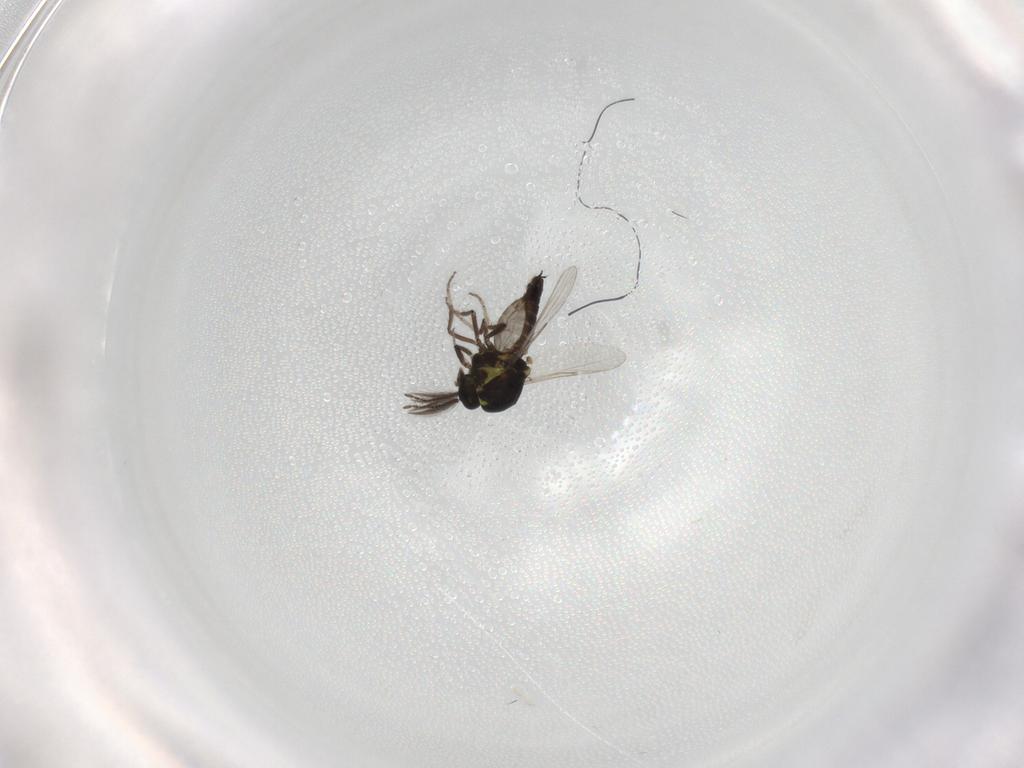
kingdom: Animalia
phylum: Arthropoda
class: Insecta
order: Diptera
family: Ceratopogonidae
